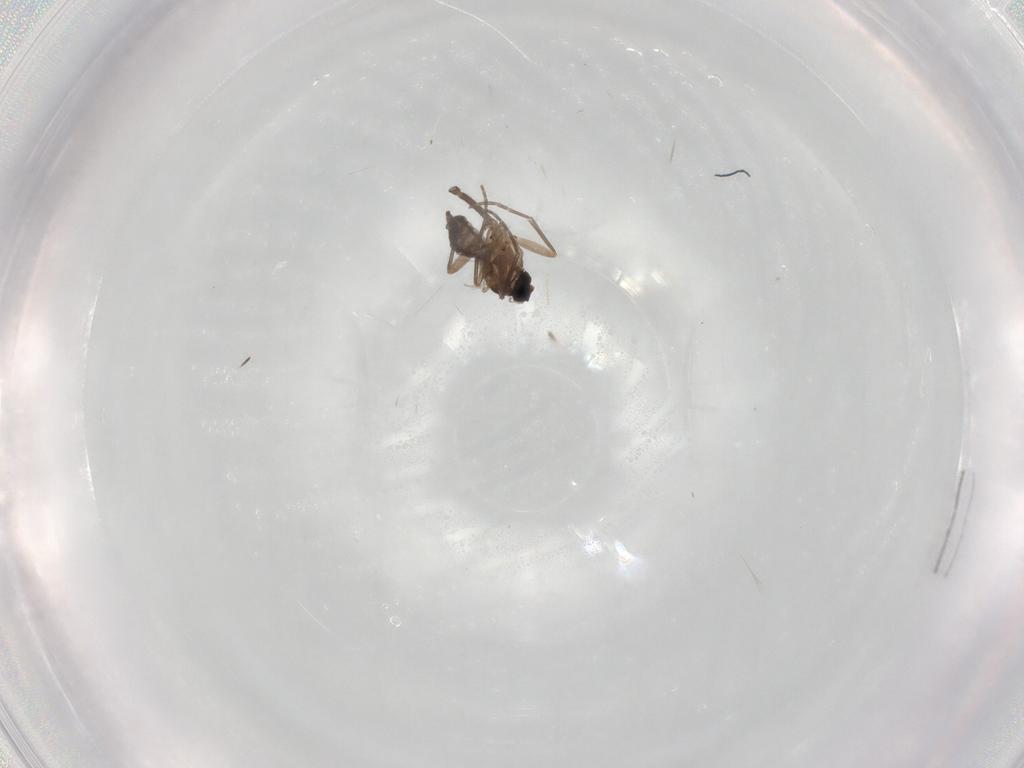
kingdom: Animalia
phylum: Arthropoda
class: Insecta
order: Diptera
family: Sciaridae
